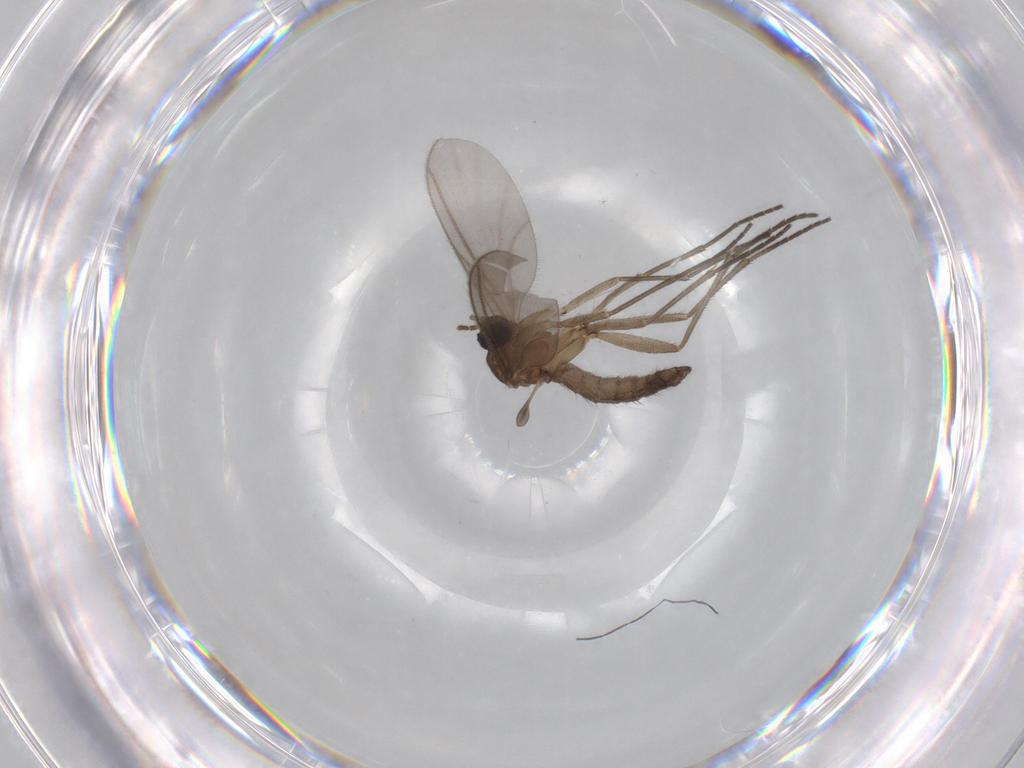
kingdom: Animalia
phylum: Arthropoda
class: Insecta
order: Diptera
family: Sciaridae
